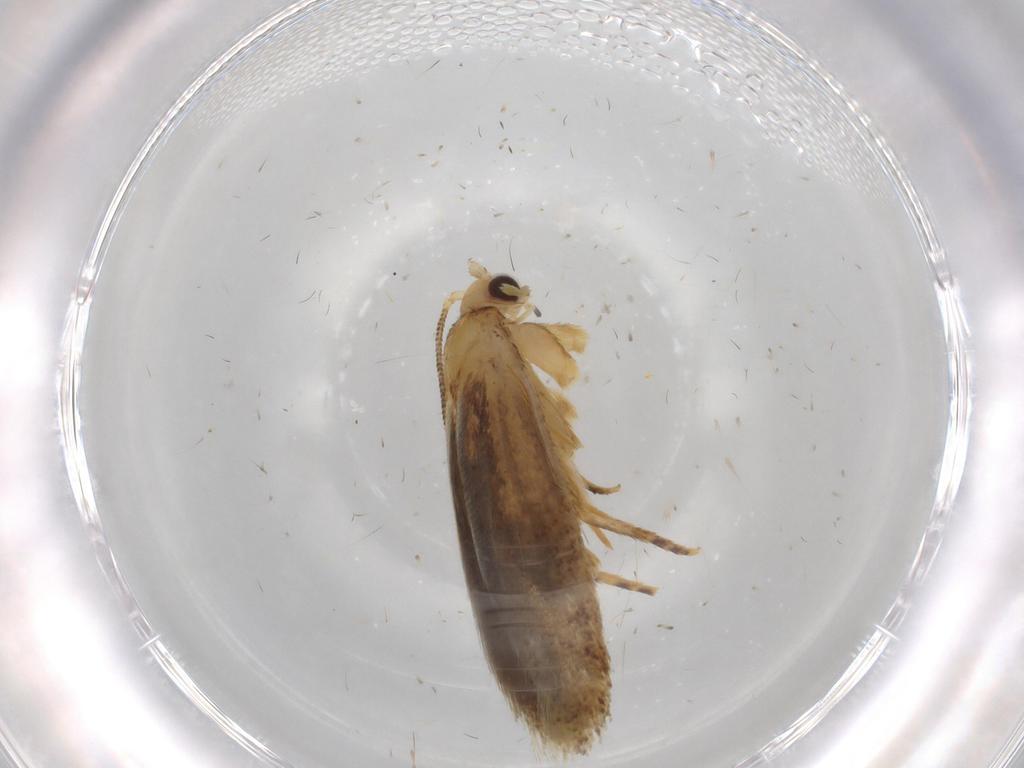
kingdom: Animalia
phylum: Arthropoda
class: Insecta
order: Lepidoptera
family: Tineidae
